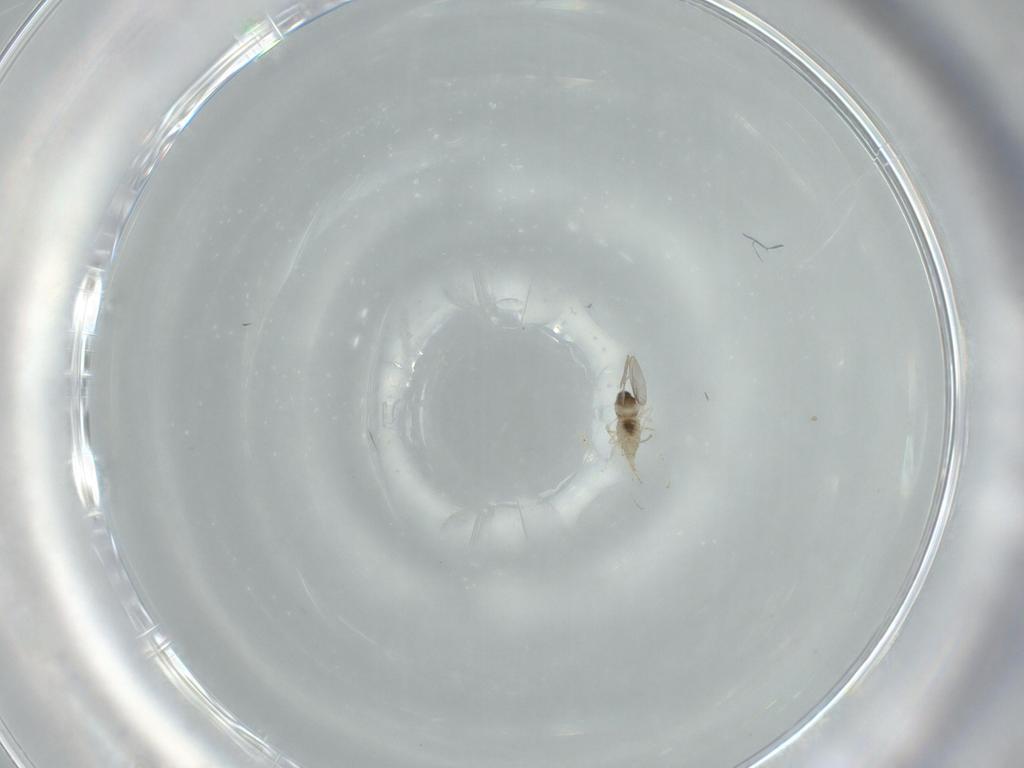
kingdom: Animalia
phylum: Arthropoda
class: Insecta
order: Diptera
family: Cecidomyiidae
